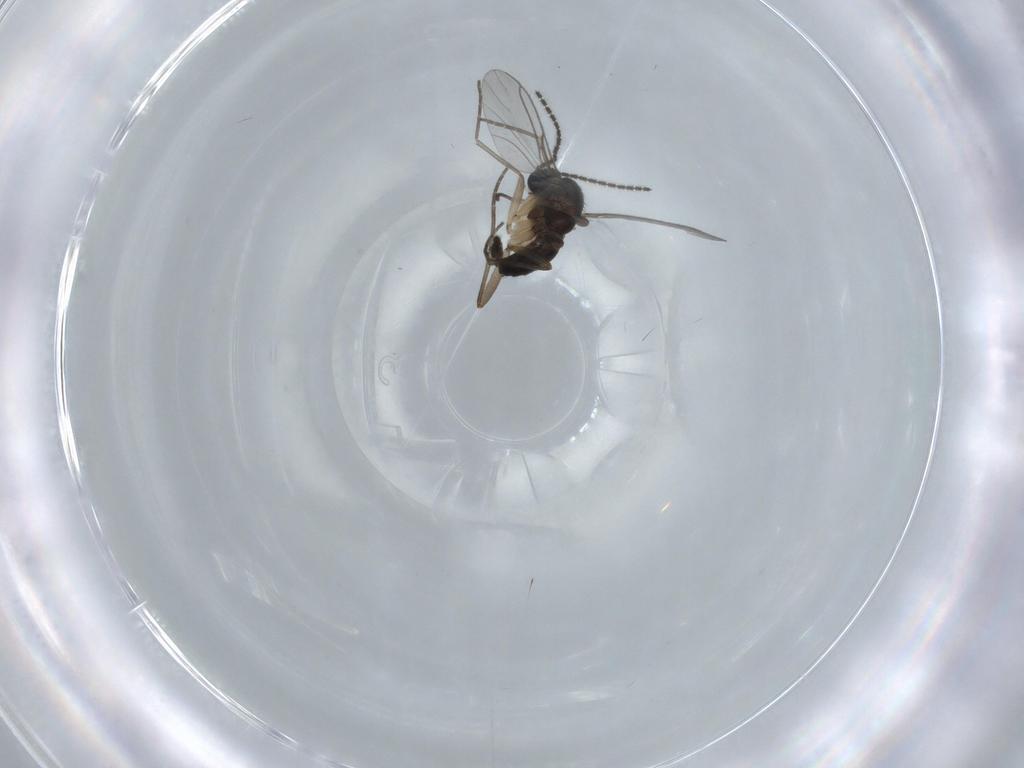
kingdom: Animalia
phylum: Arthropoda
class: Insecta
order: Diptera
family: Sciaridae
